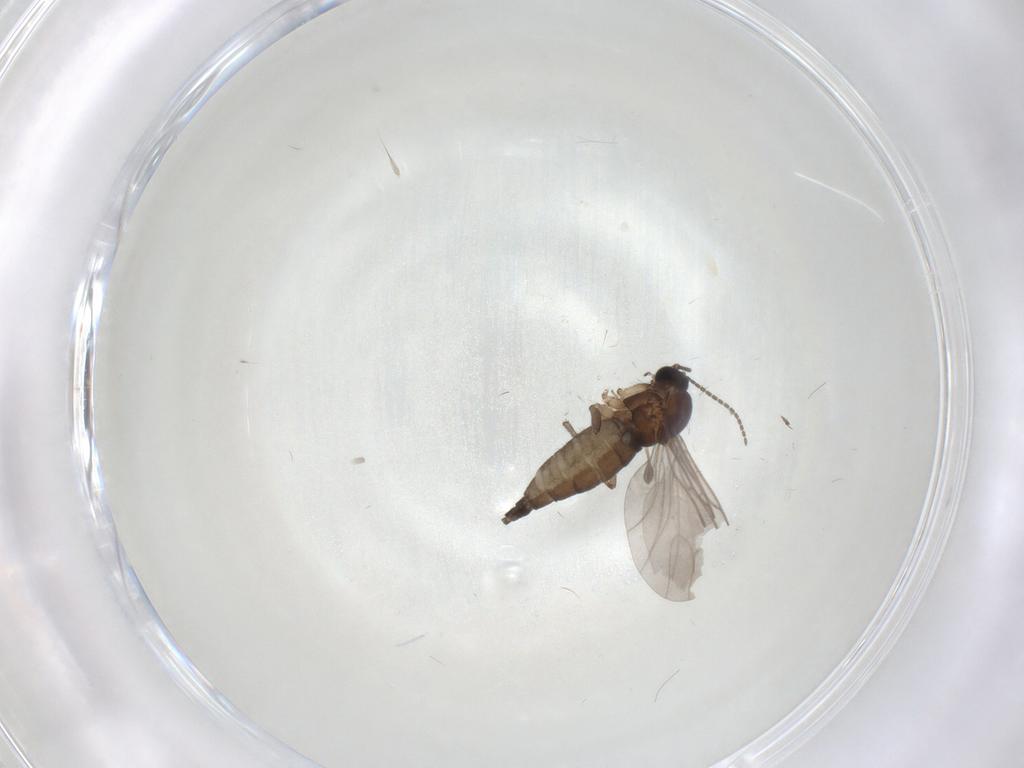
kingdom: Animalia
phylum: Arthropoda
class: Insecta
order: Diptera
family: Sciaridae
